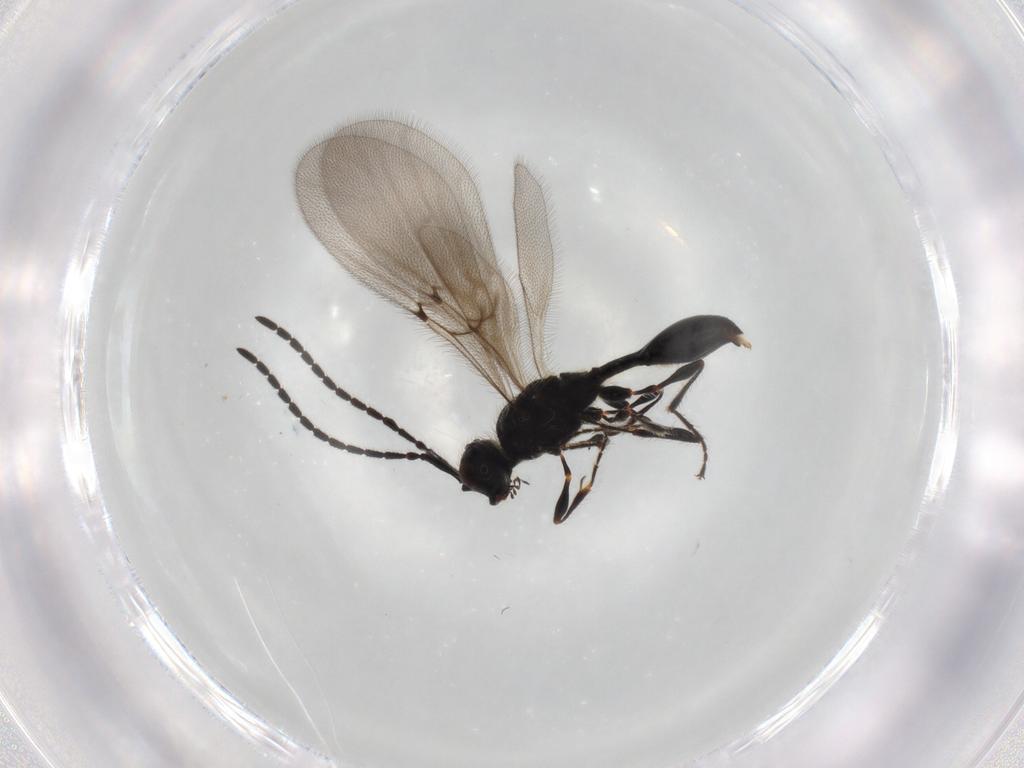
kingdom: Animalia
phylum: Arthropoda
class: Insecta
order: Hymenoptera
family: Diapriidae
